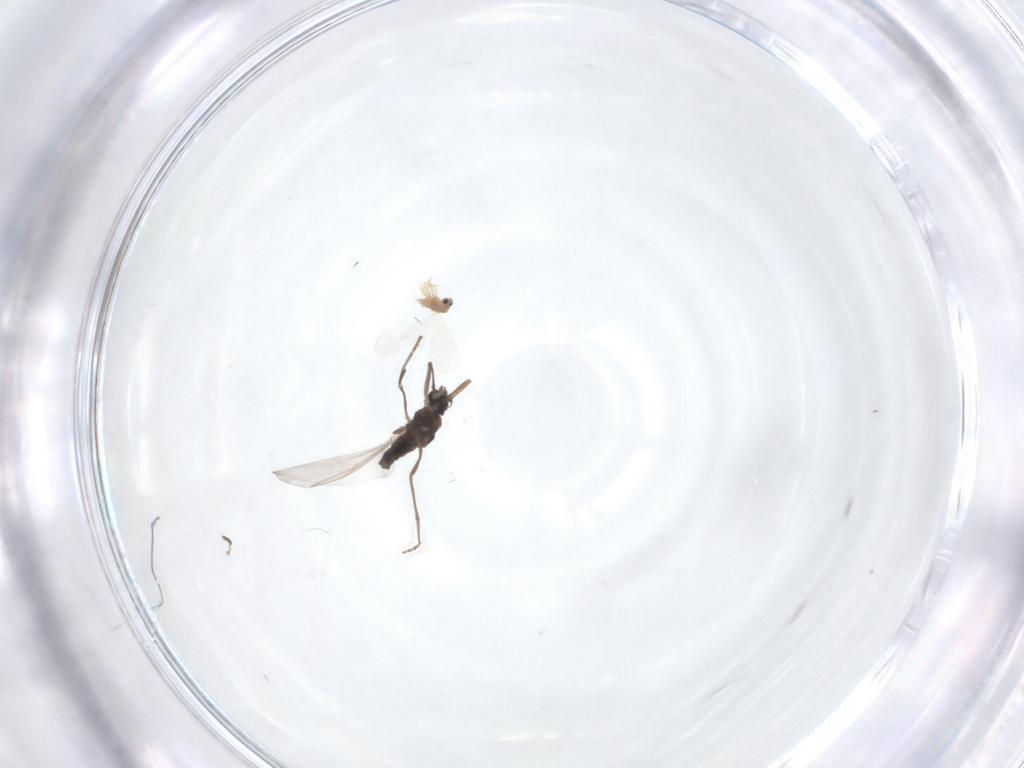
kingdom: Animalia
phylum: Arthropoda
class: Insecta
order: Diptera
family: Cecidomyiidae
